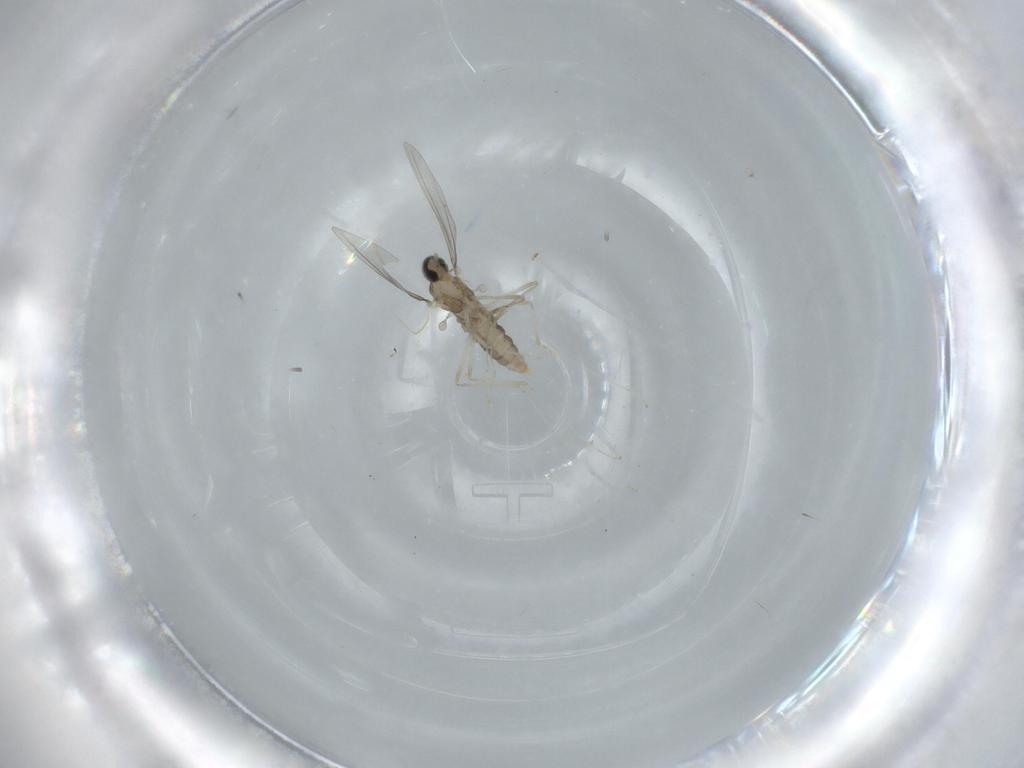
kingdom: Animalia
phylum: Arthropoda
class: Insecta
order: Diptera
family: Cecidomyiidae
